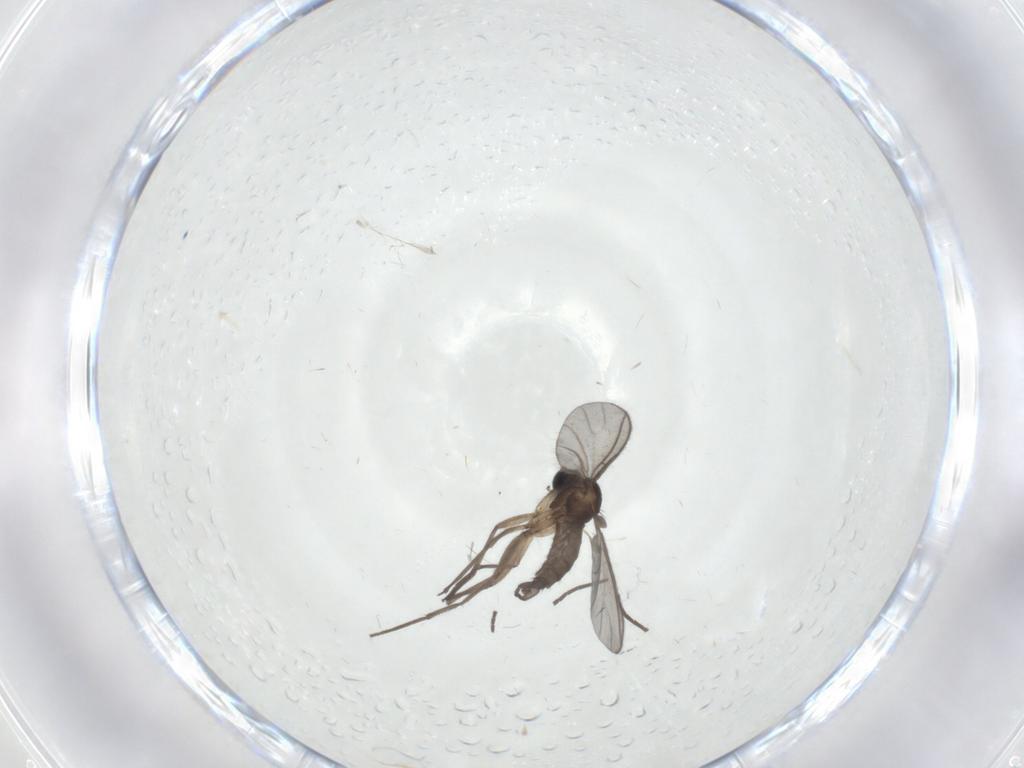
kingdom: Animalia
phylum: Arthropoda
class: Insecta
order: Diptera
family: Sciaridae
